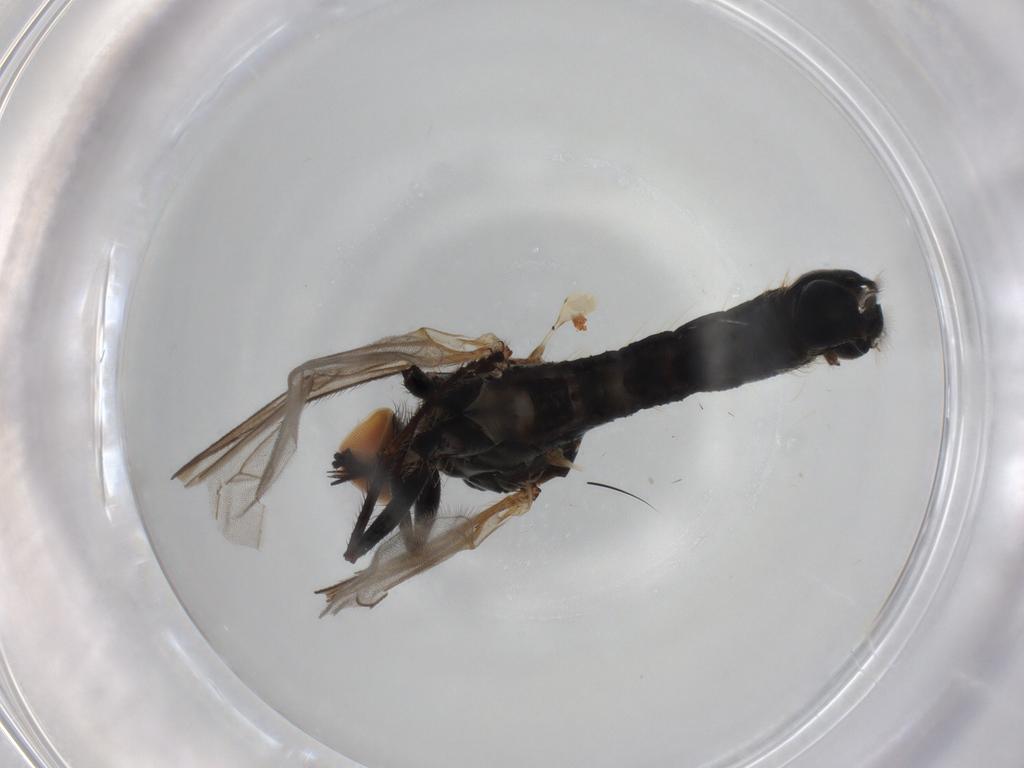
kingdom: Animalia
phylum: Arthropoda
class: Insecta
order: Diptera
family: Hybotidae
